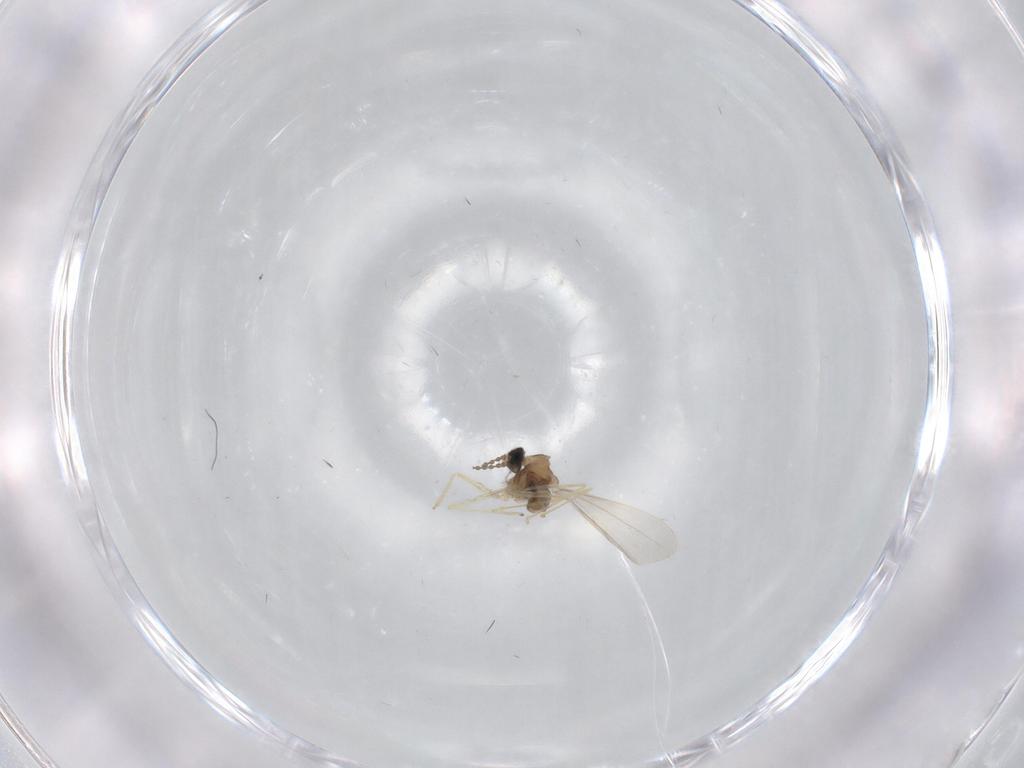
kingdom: Animalia
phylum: Arthropoda
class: Insecta
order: Diptera
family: Cecidomyiidae
